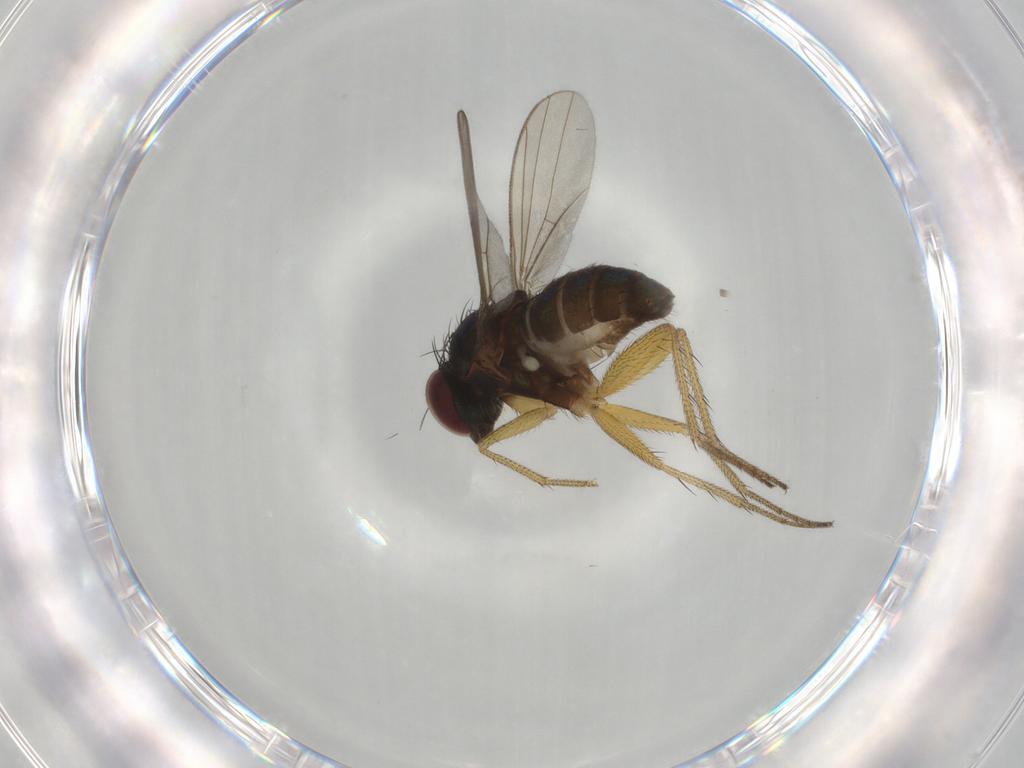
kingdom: Animalia
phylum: Arthropoda
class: Insecta
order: Diptera
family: Dolichopodidae
